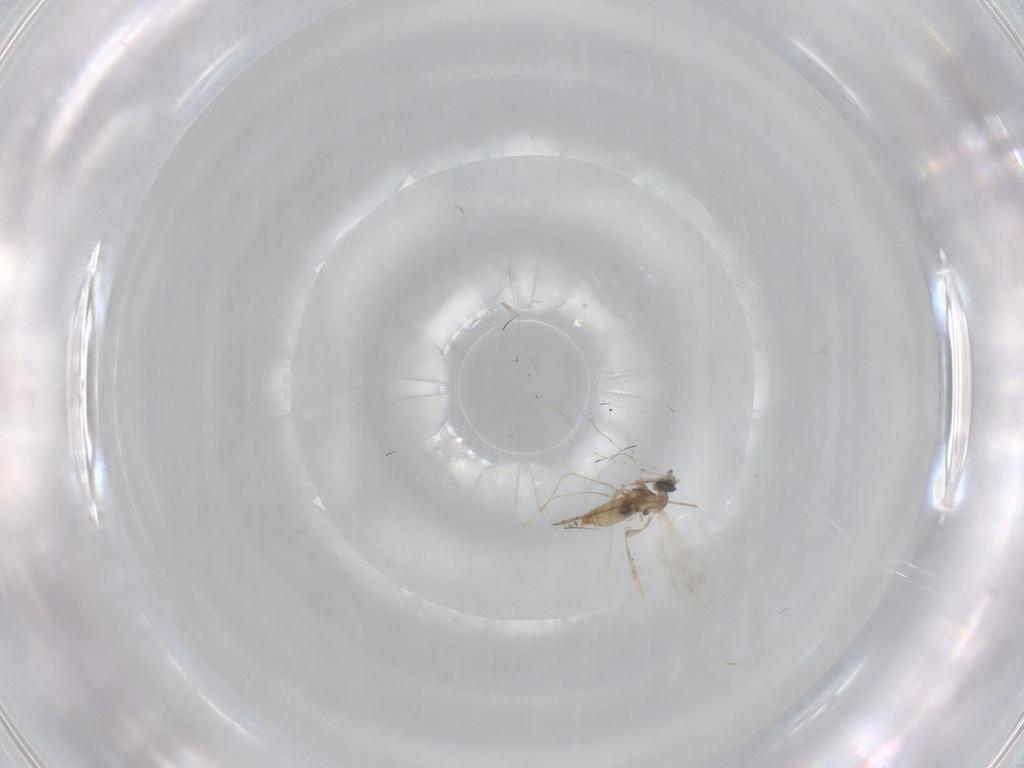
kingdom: Animalia
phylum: Arthropoda
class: Insecta
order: Diptera
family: Cecidomyiidae
